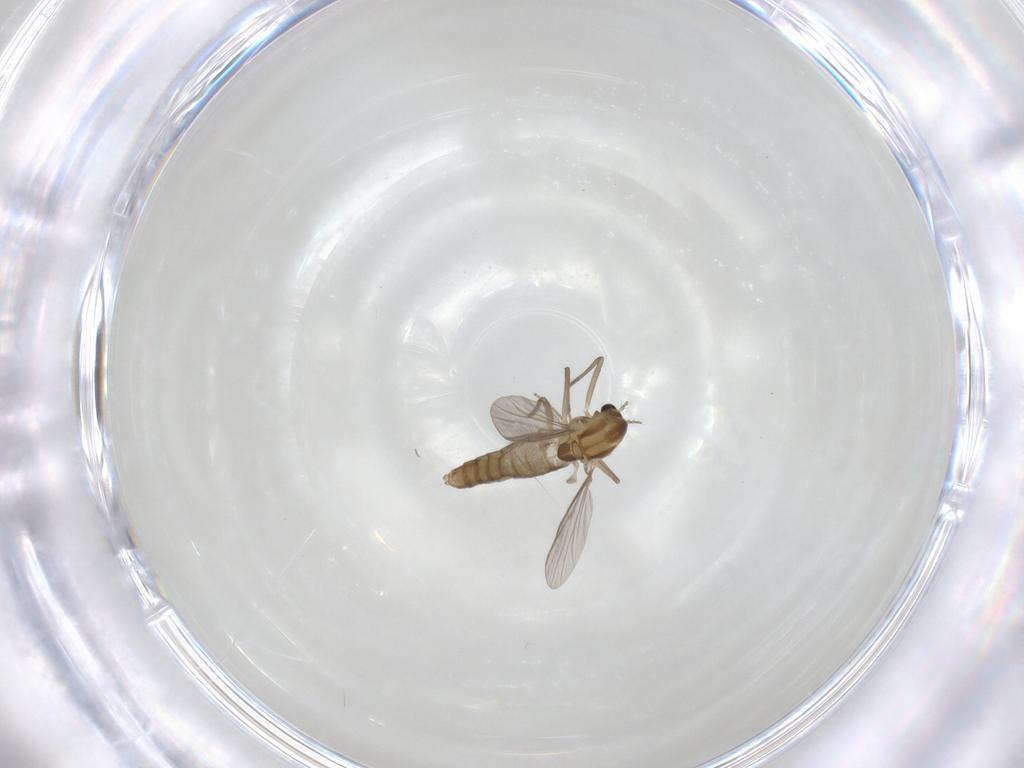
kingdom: Animalia
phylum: Arthropoda
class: Insecta
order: Diptera
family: Chironomidae
